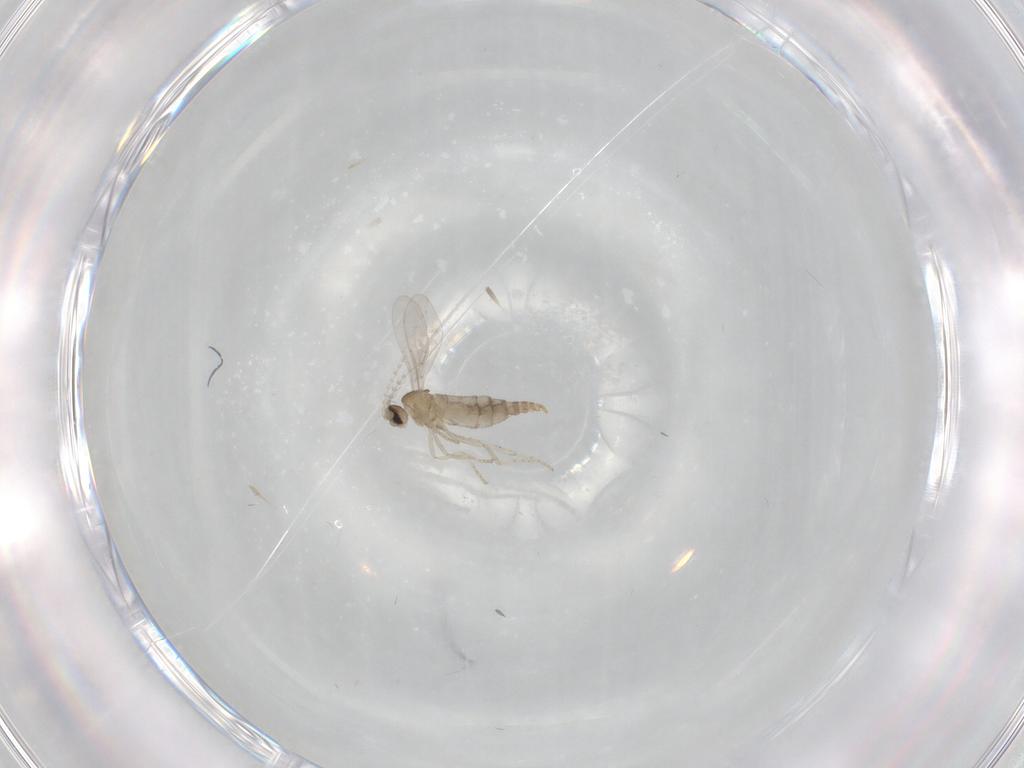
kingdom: Animalia
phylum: Arthropoda
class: Insecta
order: Diptera
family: Cecidomyiidae
